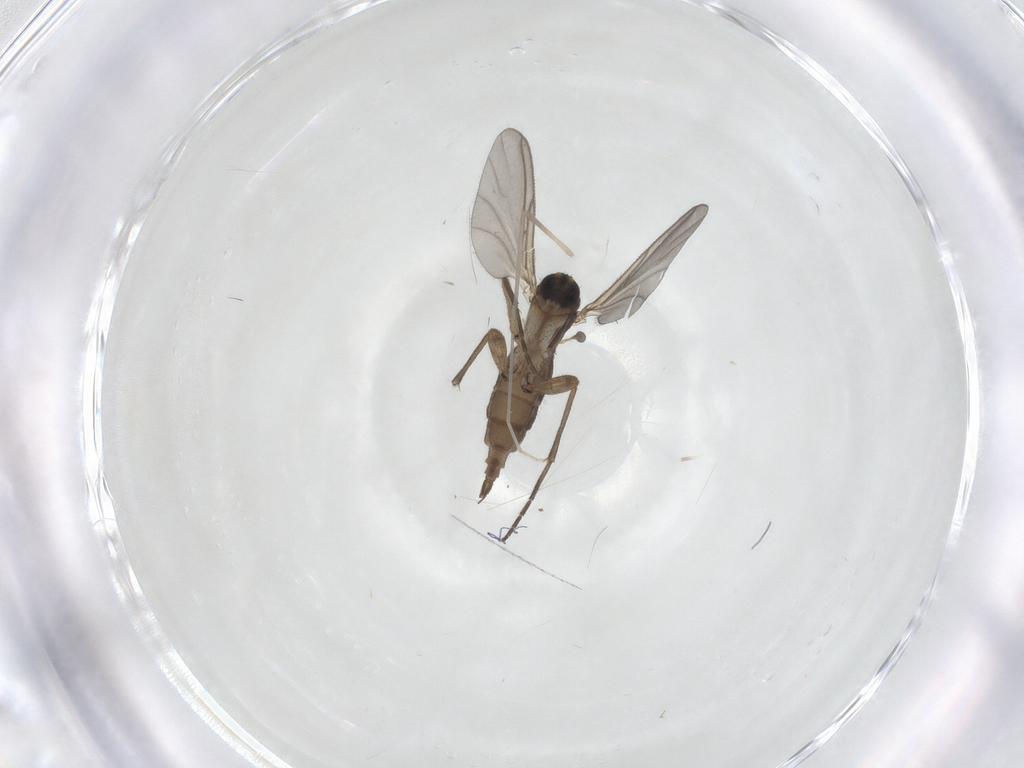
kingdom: Animalia
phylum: Arthropoda
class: Insecta
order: Diptera
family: Sciaridae
